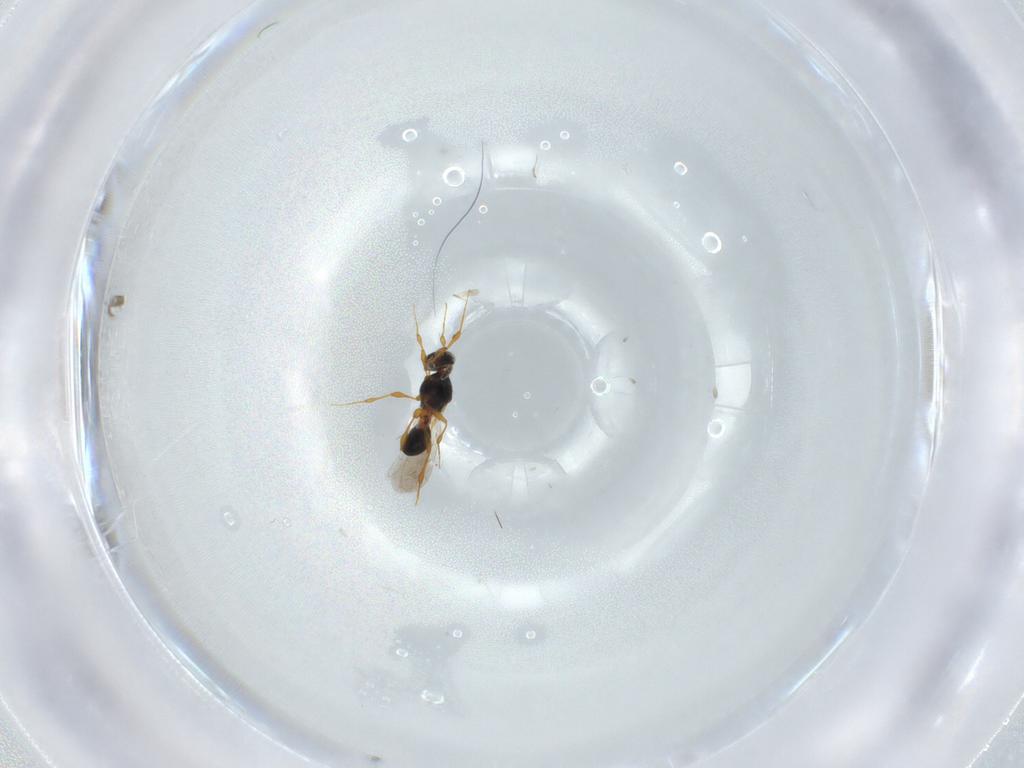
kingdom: Animalia
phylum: Arthropoda
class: Insecta
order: Hymenoptera
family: Platygastridae
